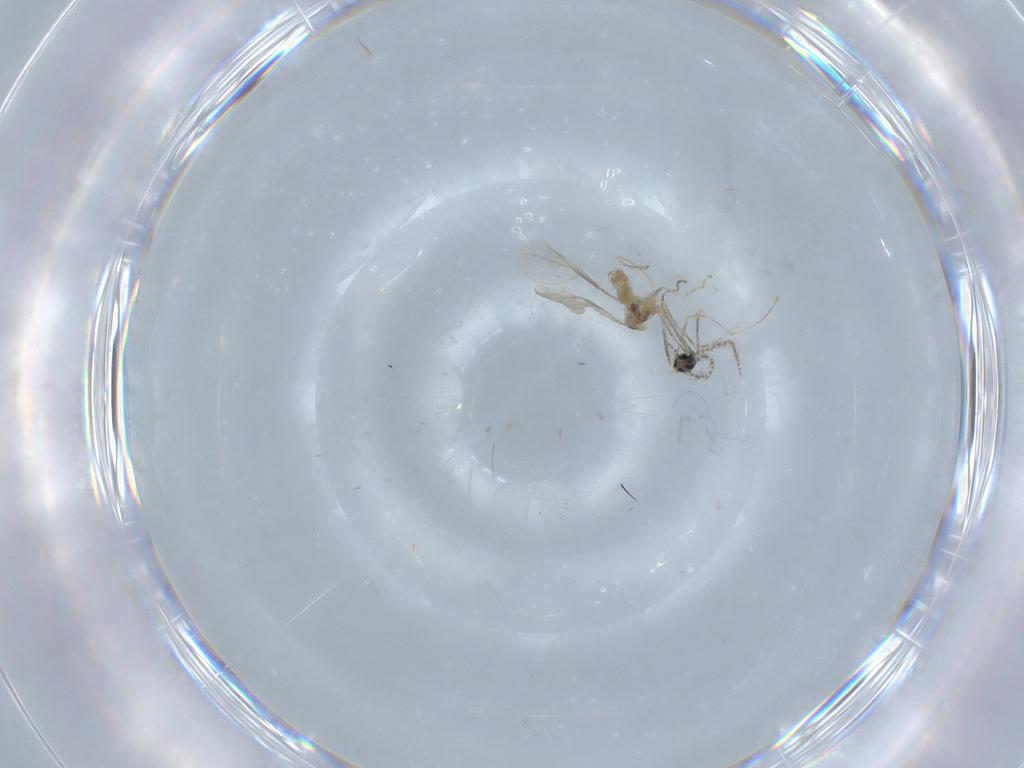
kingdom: Animalia
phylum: Arthropoda
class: Insecta
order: Diptera
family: Cecidomyiidae
